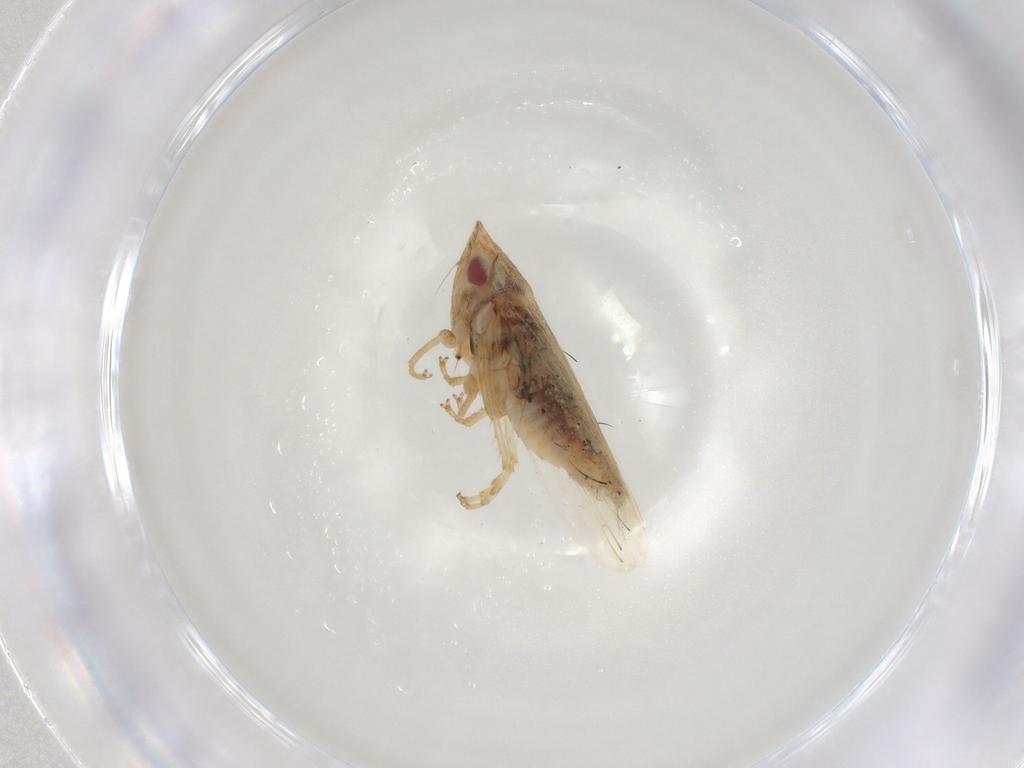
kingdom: Animalia
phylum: Arthropoda
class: Insecta
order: Hemiptera
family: Cicadellidae
